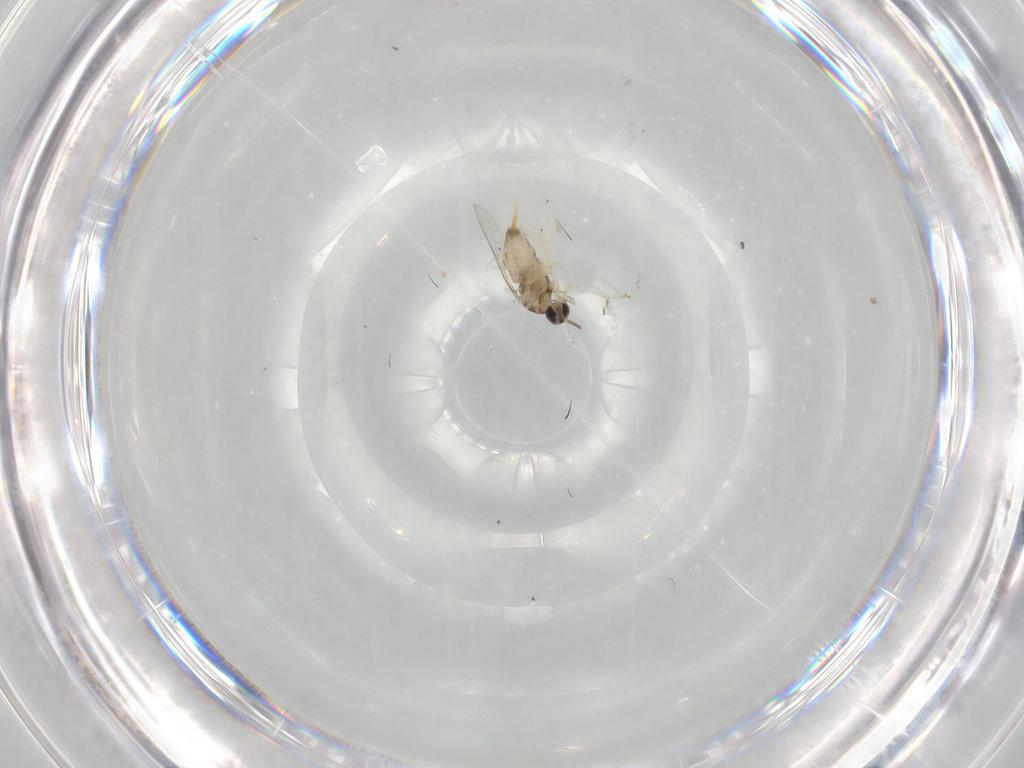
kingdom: Animalia
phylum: Arthropoda
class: Insecta
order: Diptera
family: Cecidomyiidae
